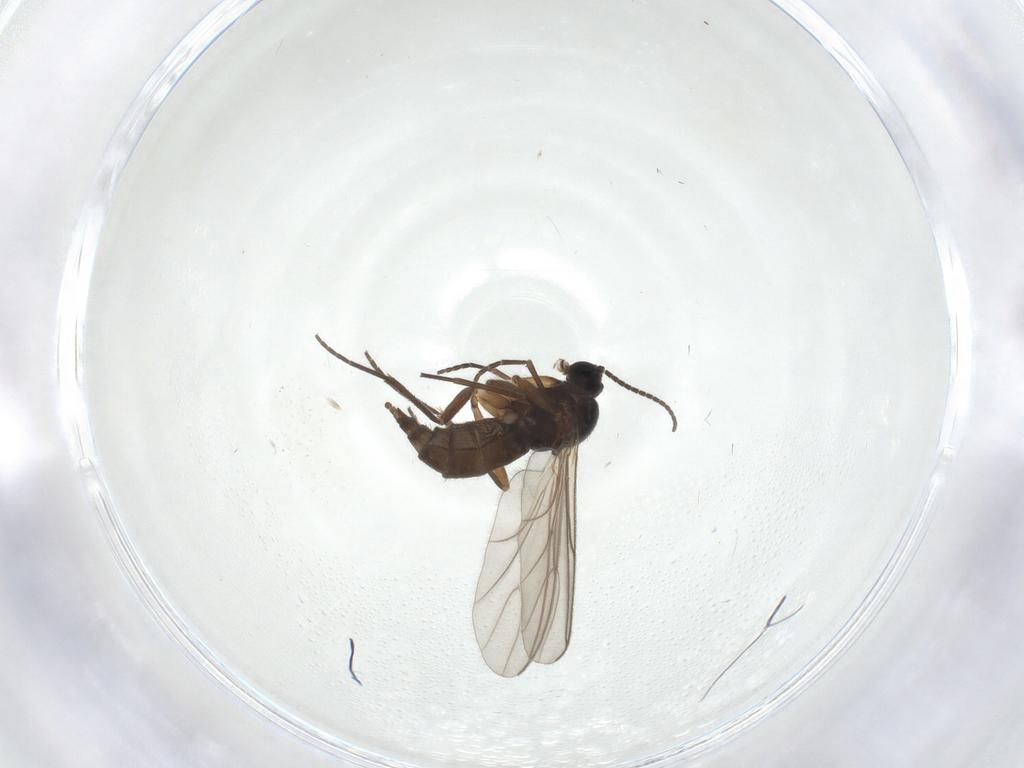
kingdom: Animalia
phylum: Arthropoda
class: Insecta
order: Diptera
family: Sciaridae
